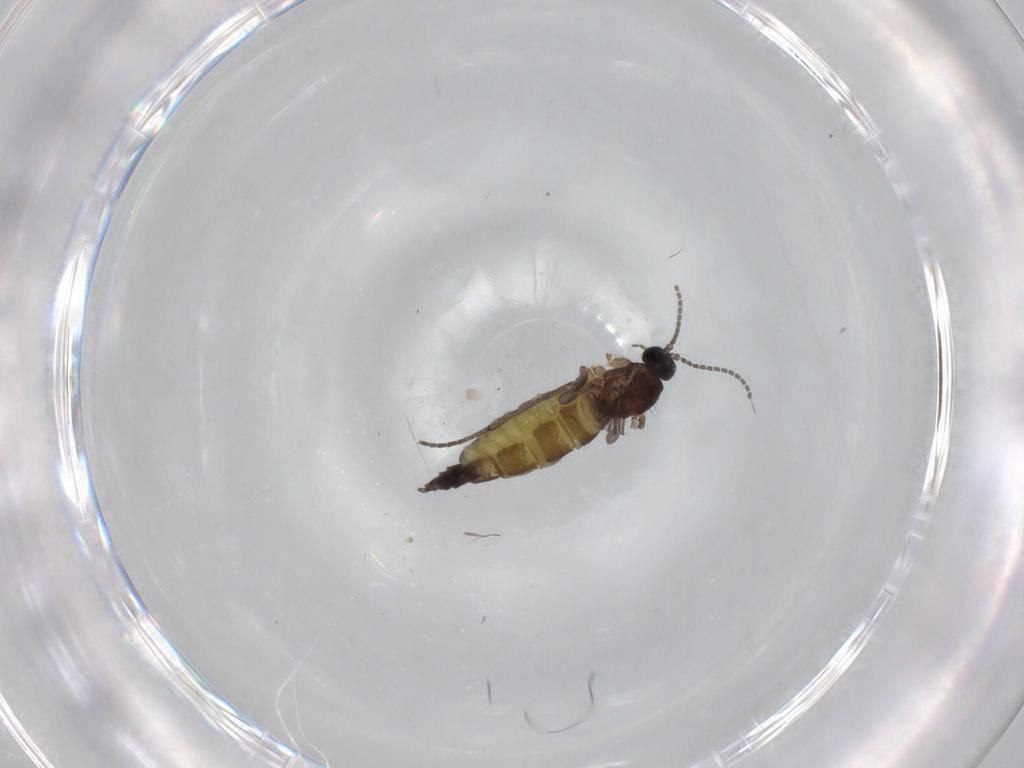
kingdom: Animalia
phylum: Arthropoda
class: Insecta
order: Diptera
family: Sciaridae
